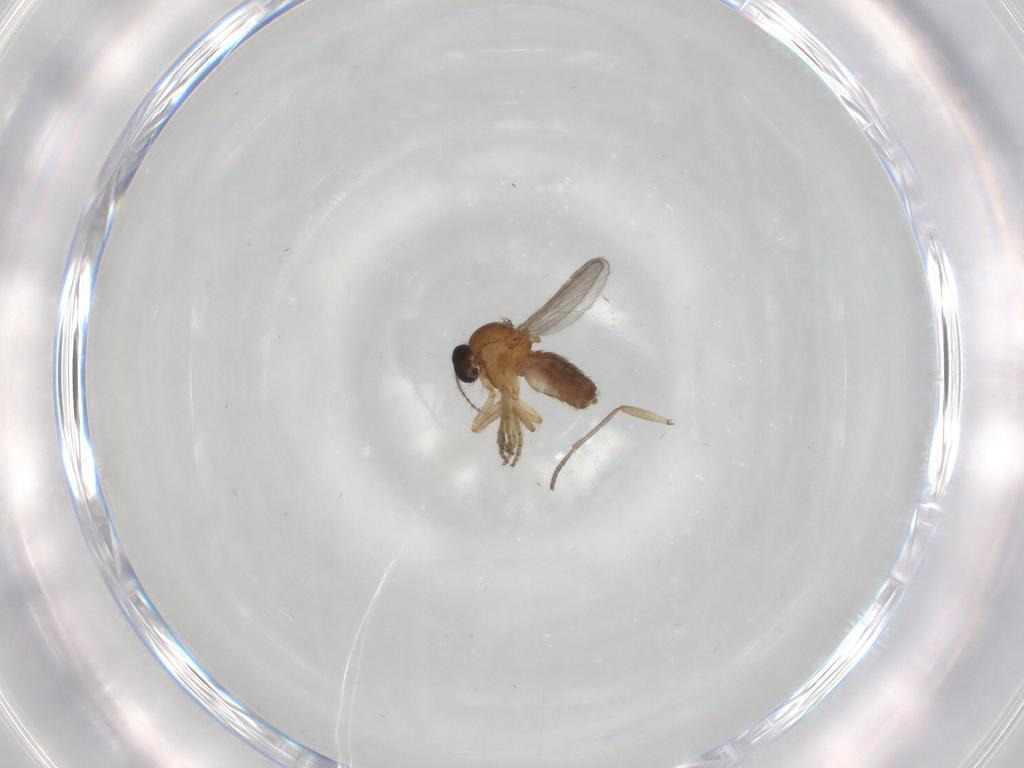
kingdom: Animalia
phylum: Arthropoda
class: Insecta
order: Diptera
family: Ceratopogonidae
